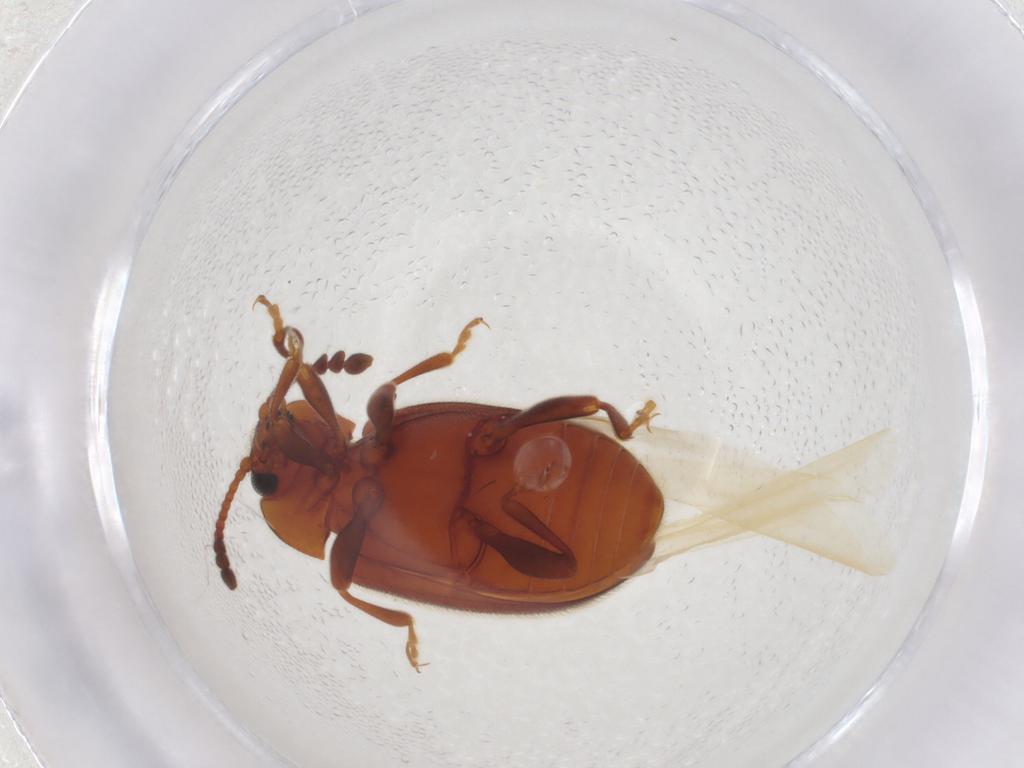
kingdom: Animalia
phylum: Arthropoda
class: Insecta
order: Coleoptera
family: Endomychidae
